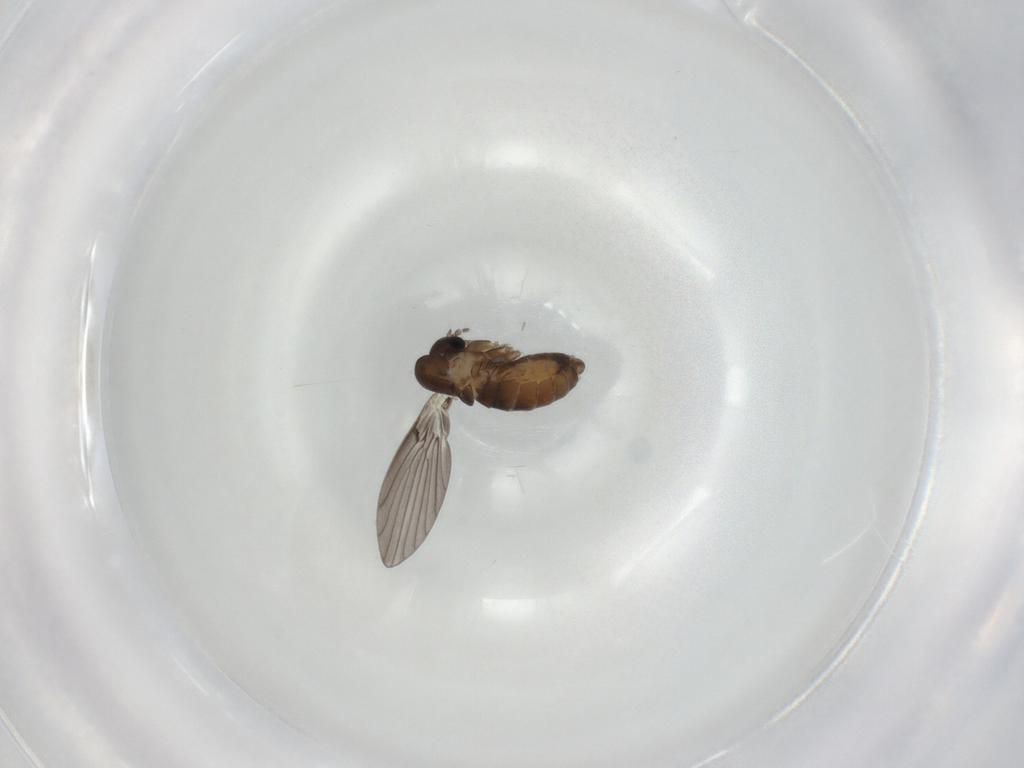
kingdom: Animalia
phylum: Arthropoda
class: Insecta
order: Diptera
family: Psychodidae
